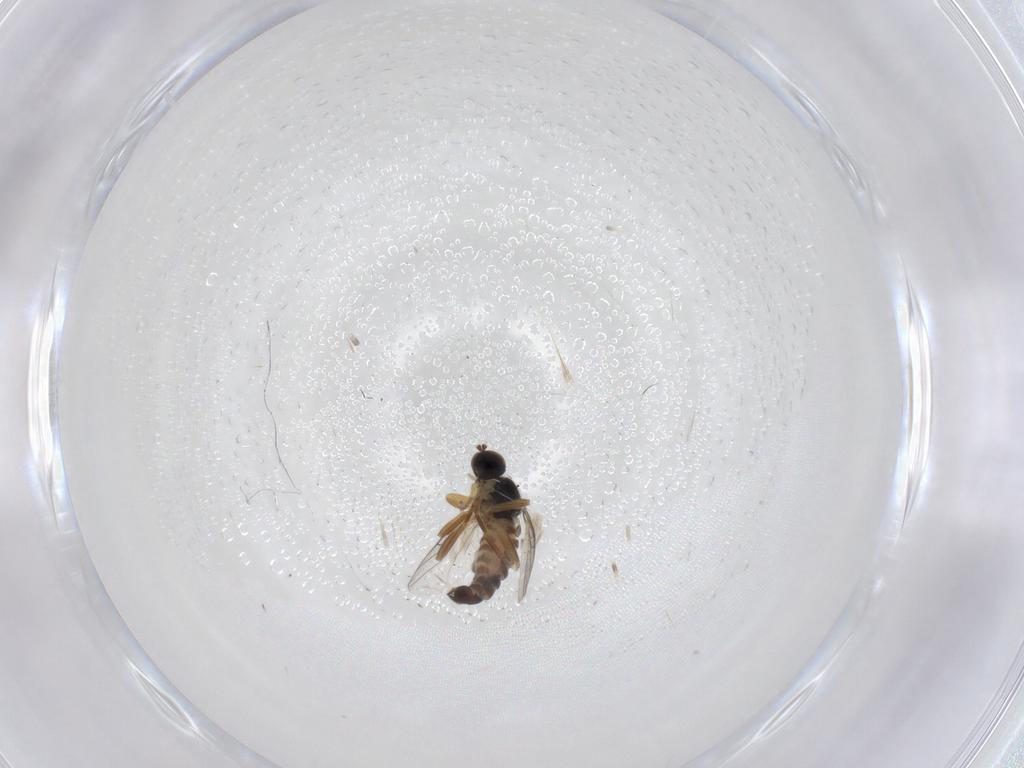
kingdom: Animalia
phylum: Arthropoda
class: Insecta
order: Diptera
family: Hybotidae
